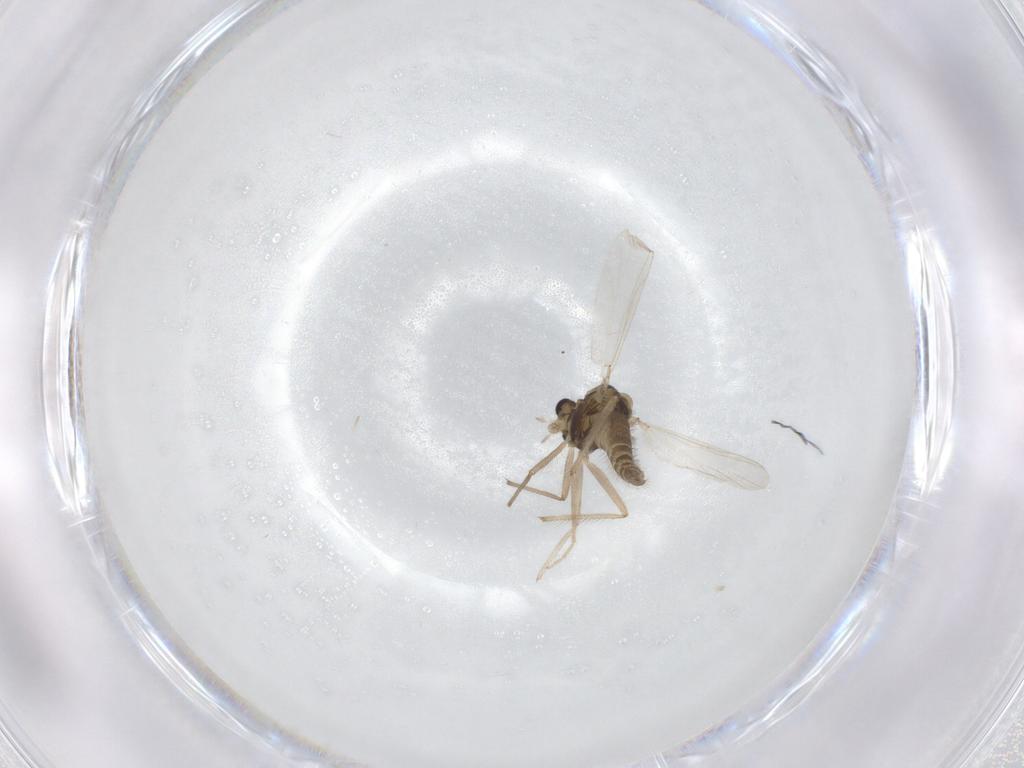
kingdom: Animalia
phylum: Arthropoda
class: Insecta
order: Diptera
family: Chironomidae
